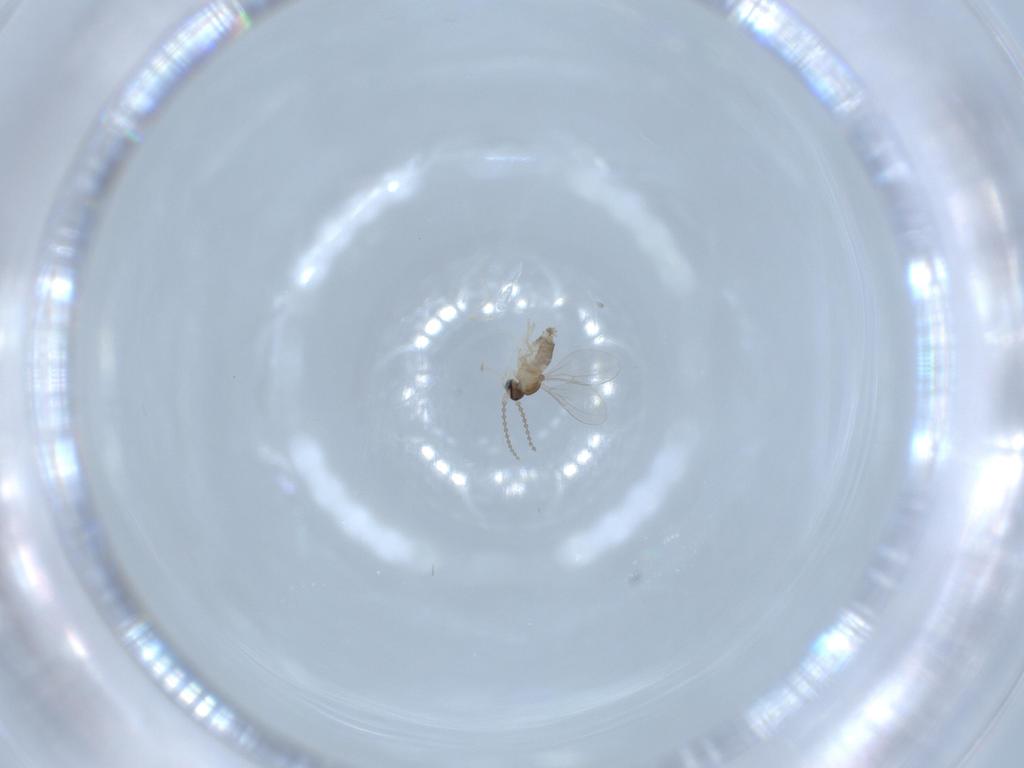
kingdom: Animalia
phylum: Arthropoda
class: Insecta
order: Diptera
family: Cecidomyiidae
